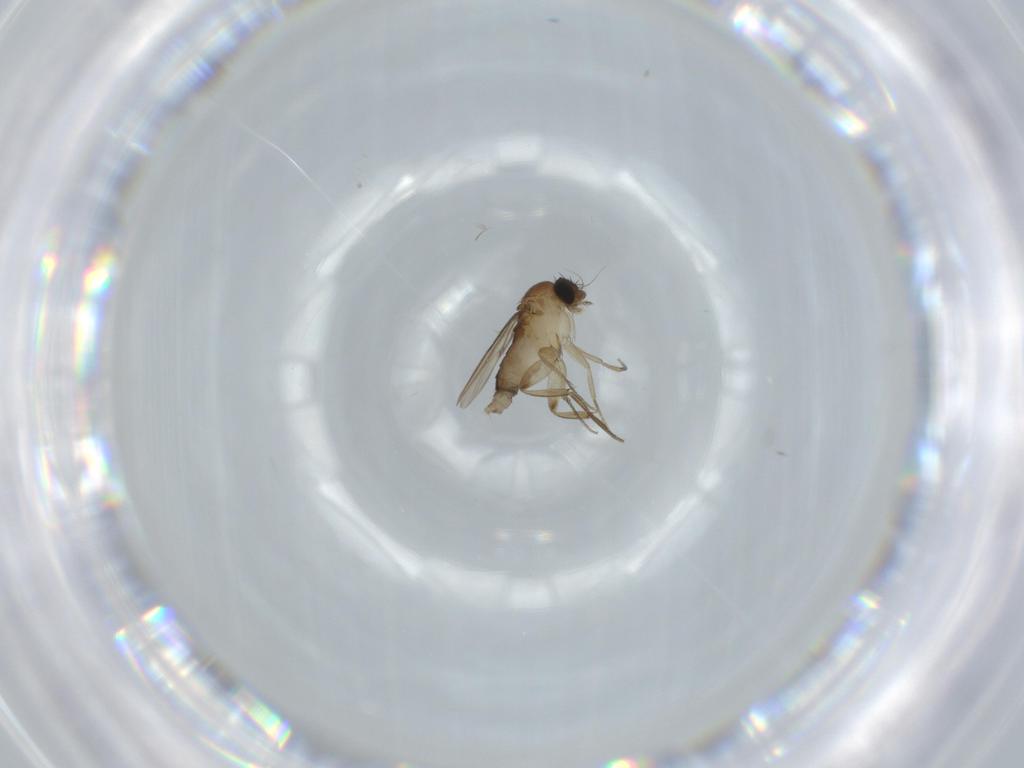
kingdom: Animalia
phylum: Arthropoda
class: Insecta
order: Diptera
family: Phoridae
